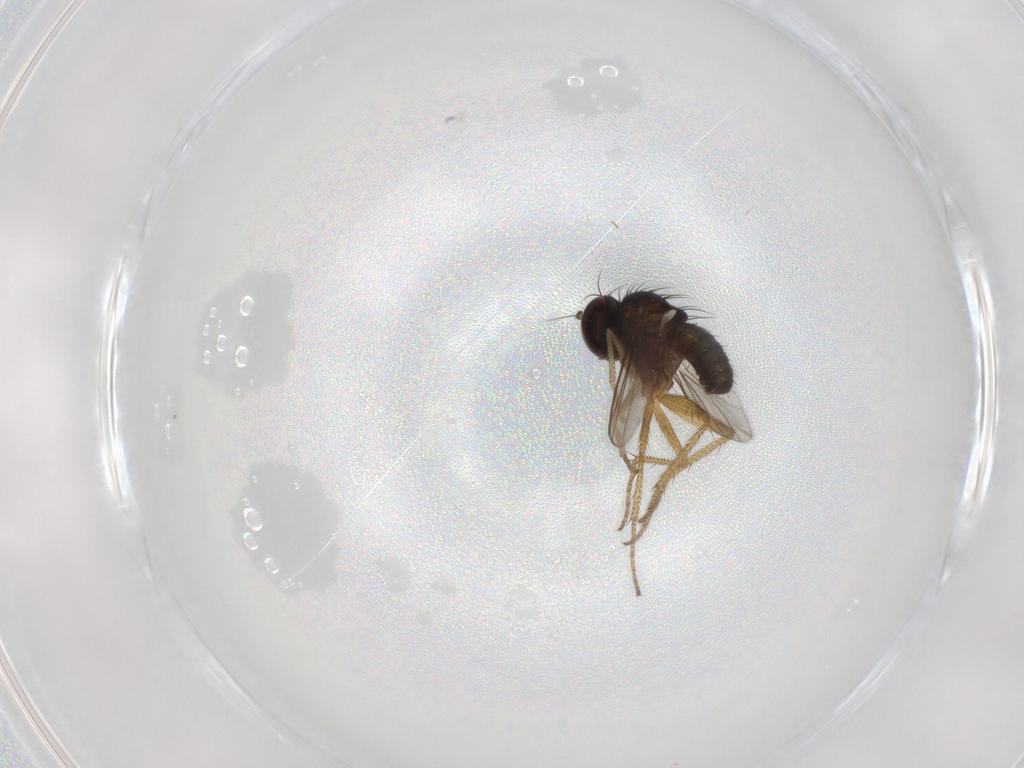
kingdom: Animalia
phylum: Arthropoda
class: Insecta
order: Diptera
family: Chironomidae
